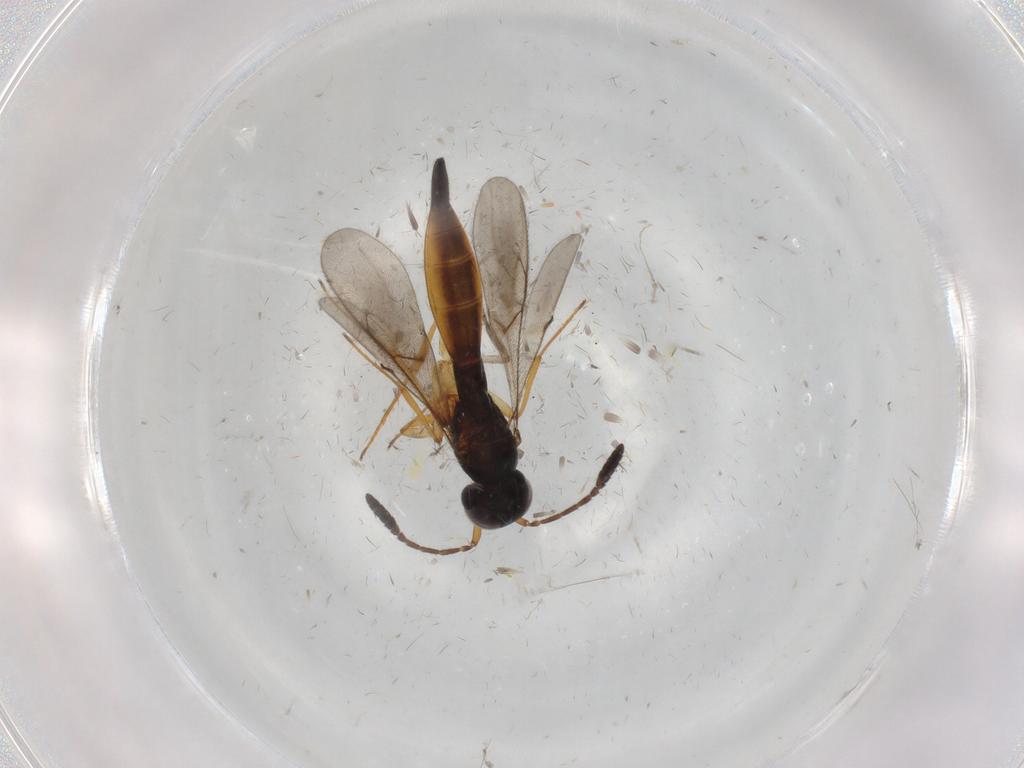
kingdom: Animalia
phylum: Arthropoda
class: Insecta
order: Hymenoptera
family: Scelionidae
